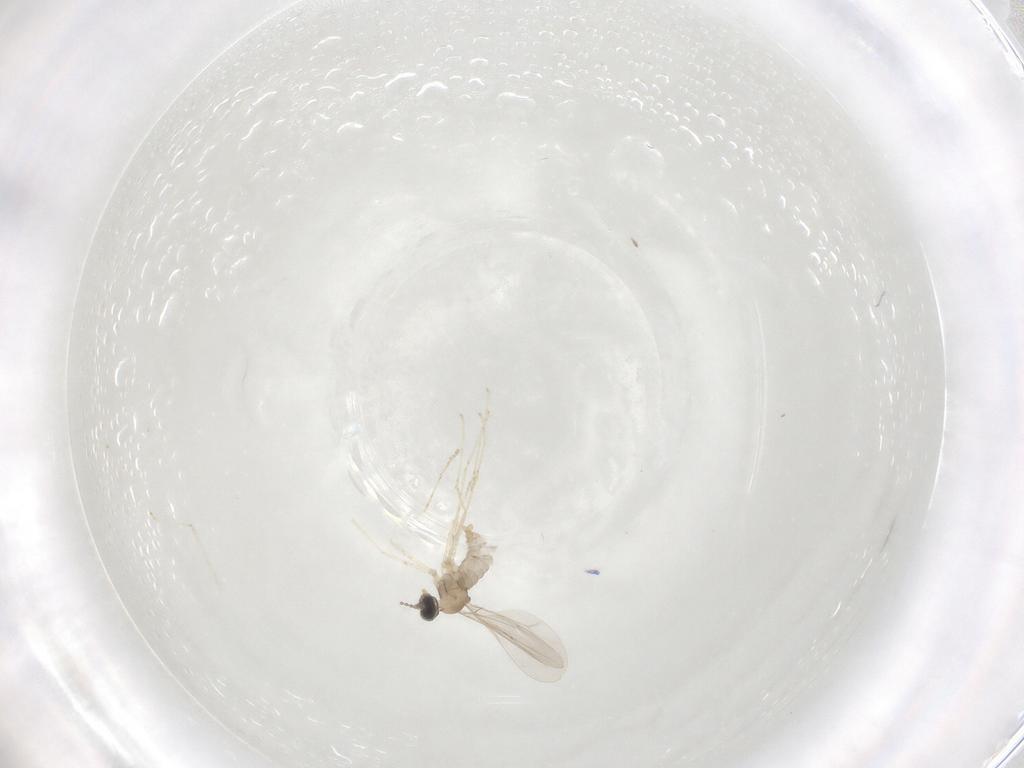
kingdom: Animalia
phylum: Arthropoda
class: Insecta
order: Diptera
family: Cecidomyiidae
